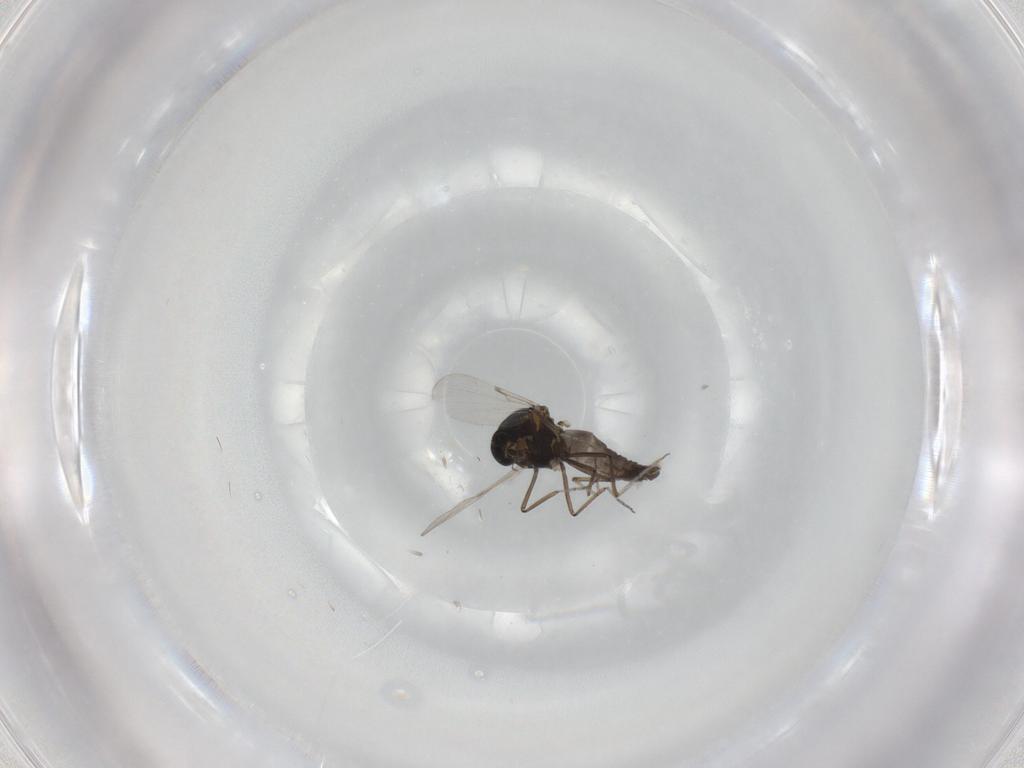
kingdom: Animalia
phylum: Arthropoda
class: Insecta
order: Diptera
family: Ceratopogonidae
